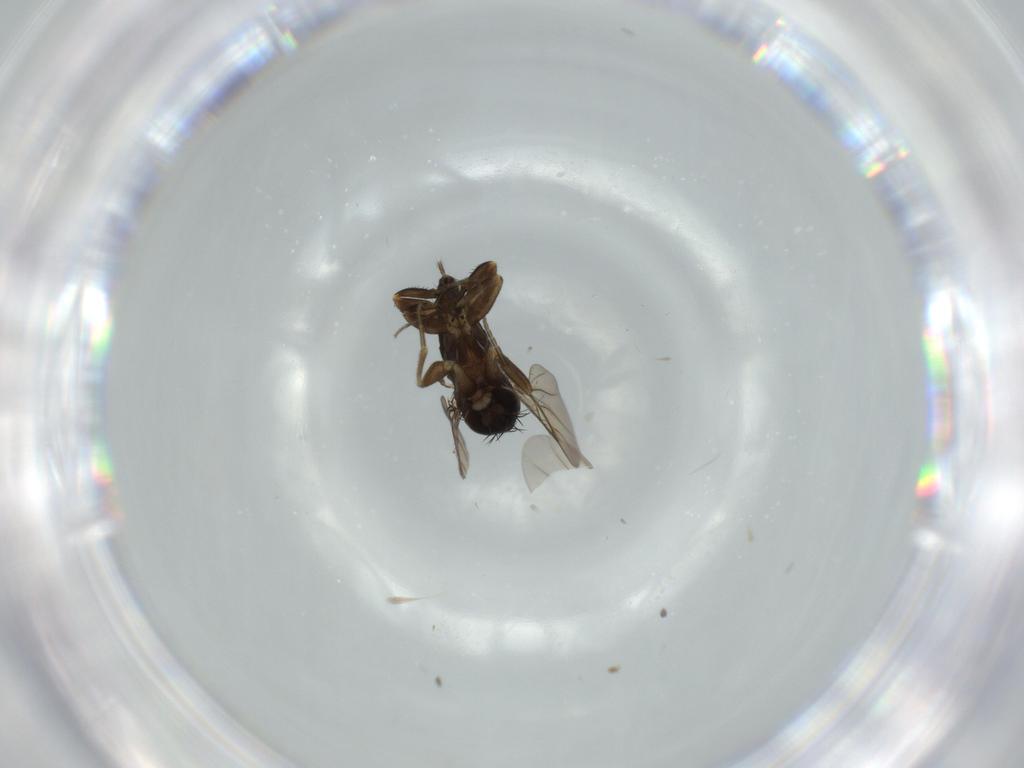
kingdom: Animalia
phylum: Arthropoda
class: Insecta
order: Diptera
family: Phoridae
